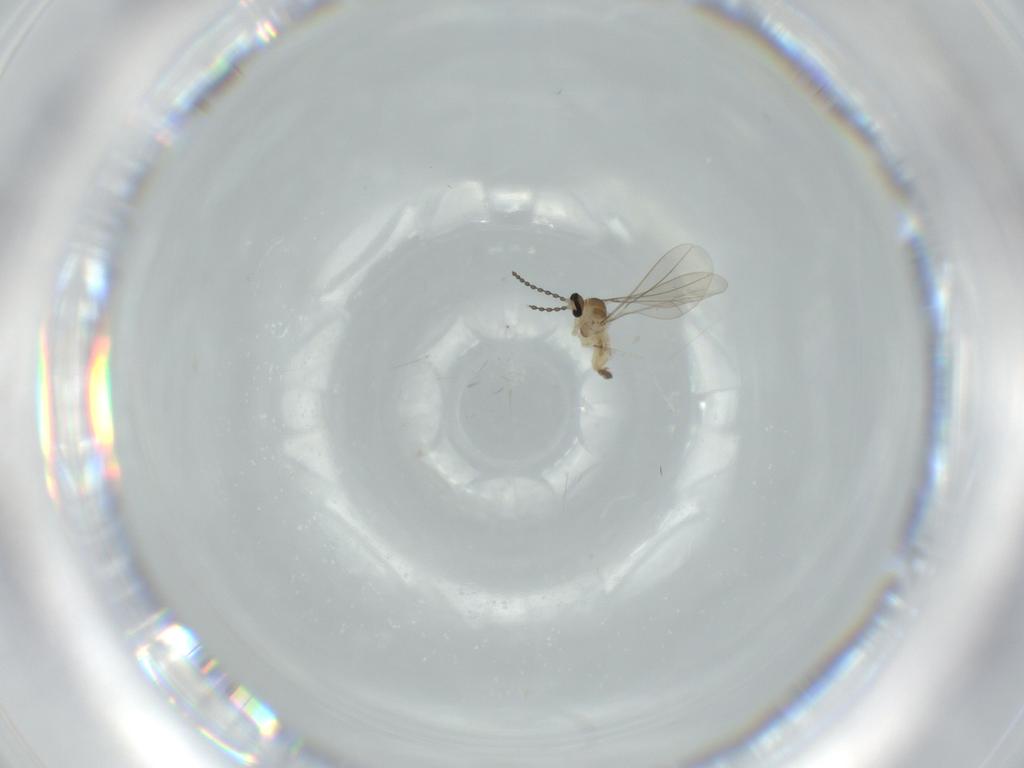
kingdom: Animalia
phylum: Arthropoda
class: Insecta
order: Diptera
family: Cecidomyiidae
